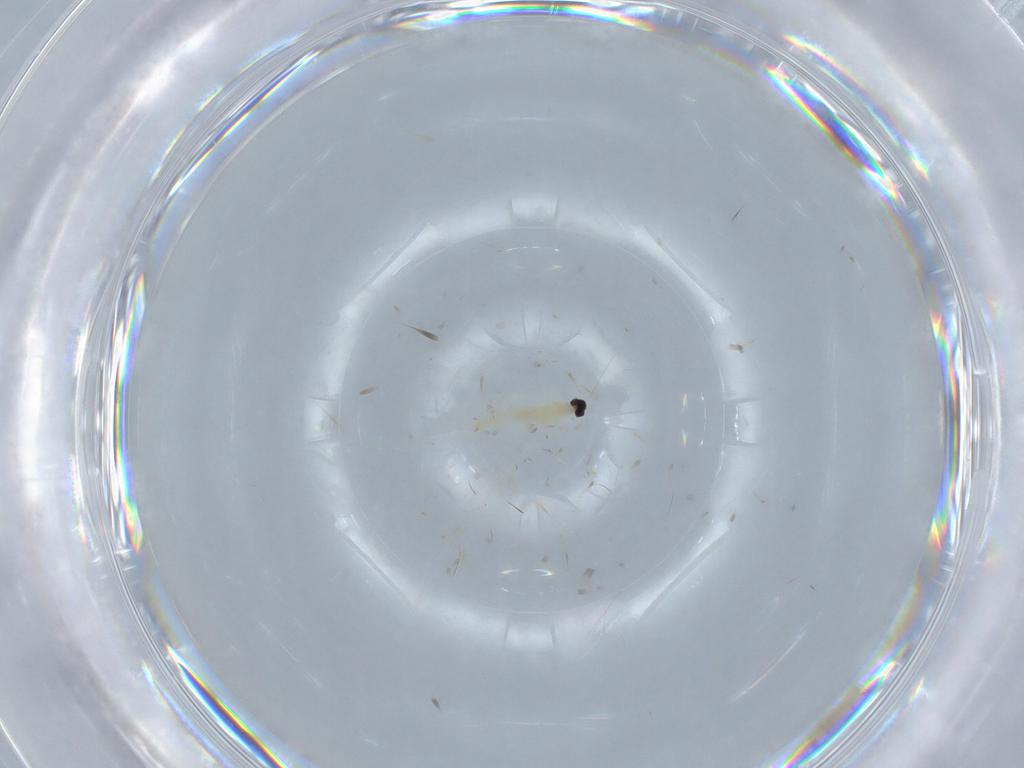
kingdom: Animalia
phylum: Arthropoda
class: Insecta
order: Diptera
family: Cecidomyiidae
